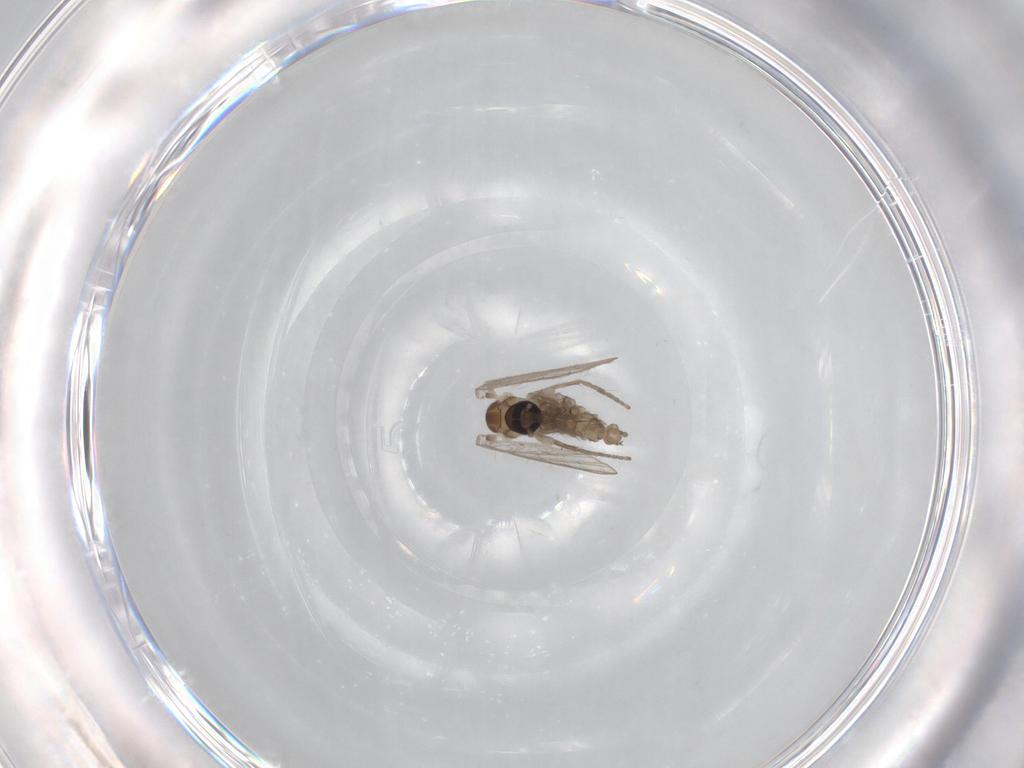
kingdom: Animalia
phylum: Arthropoda
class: Insecta
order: Diptera
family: Psychodidae
